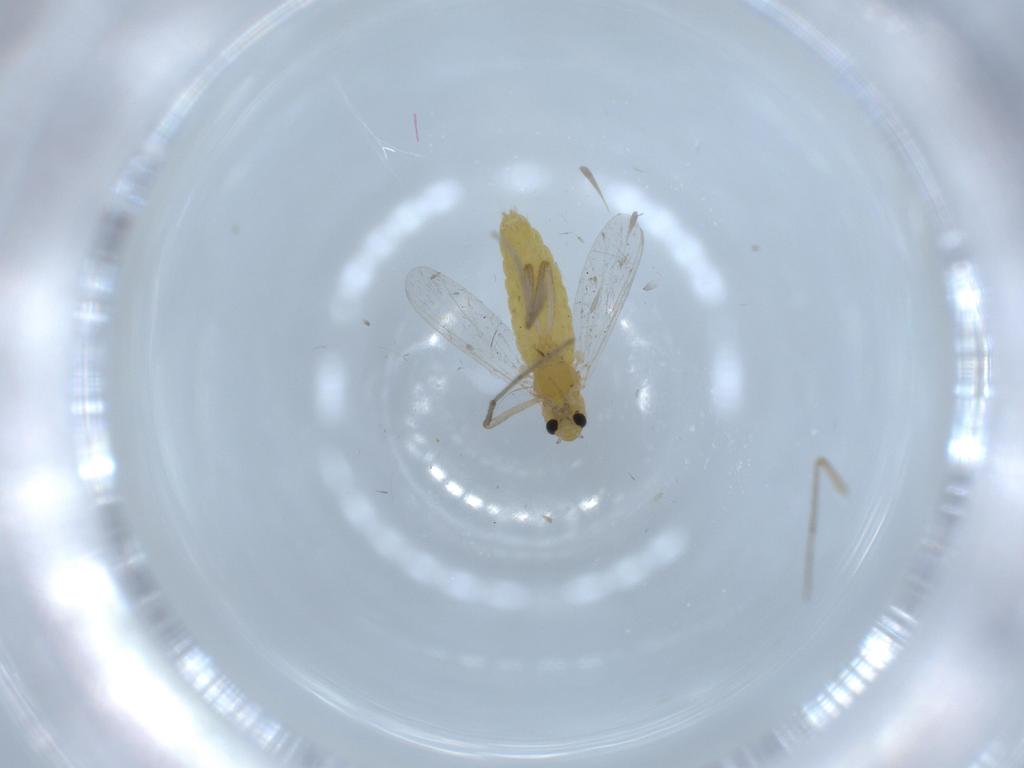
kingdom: Animalia
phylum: Arthropoda
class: Insecta
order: Diptera
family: Chironomidae
